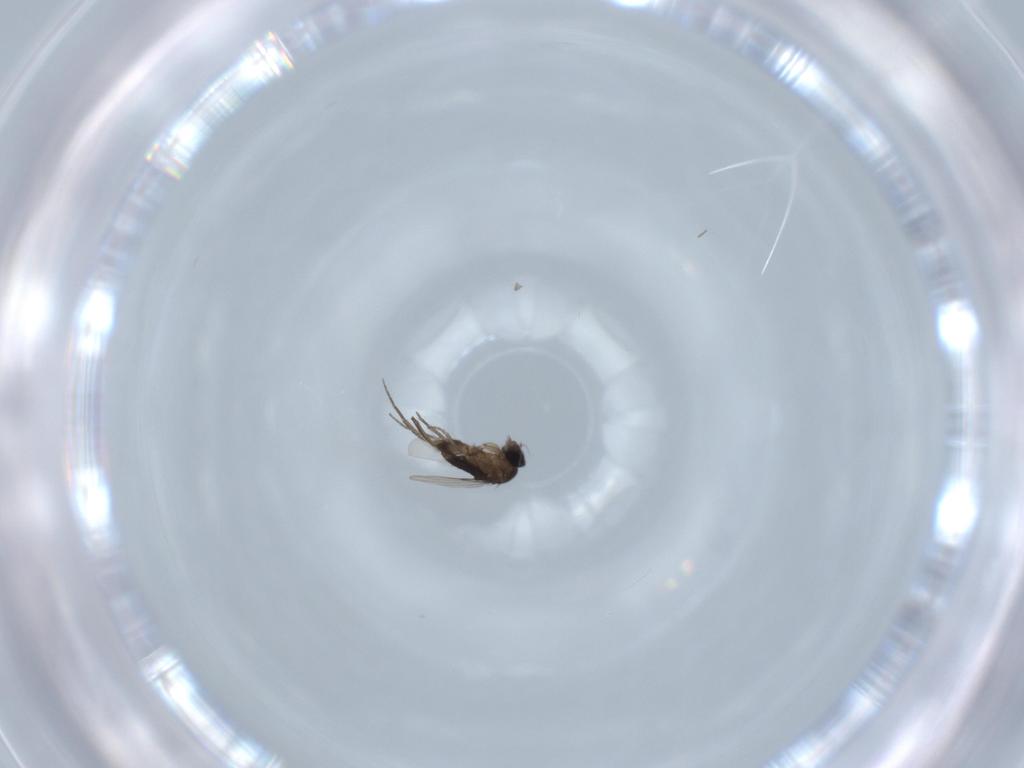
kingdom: Animalia
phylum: Arthropoda
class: Insecta
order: Diptera
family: Phoridae
